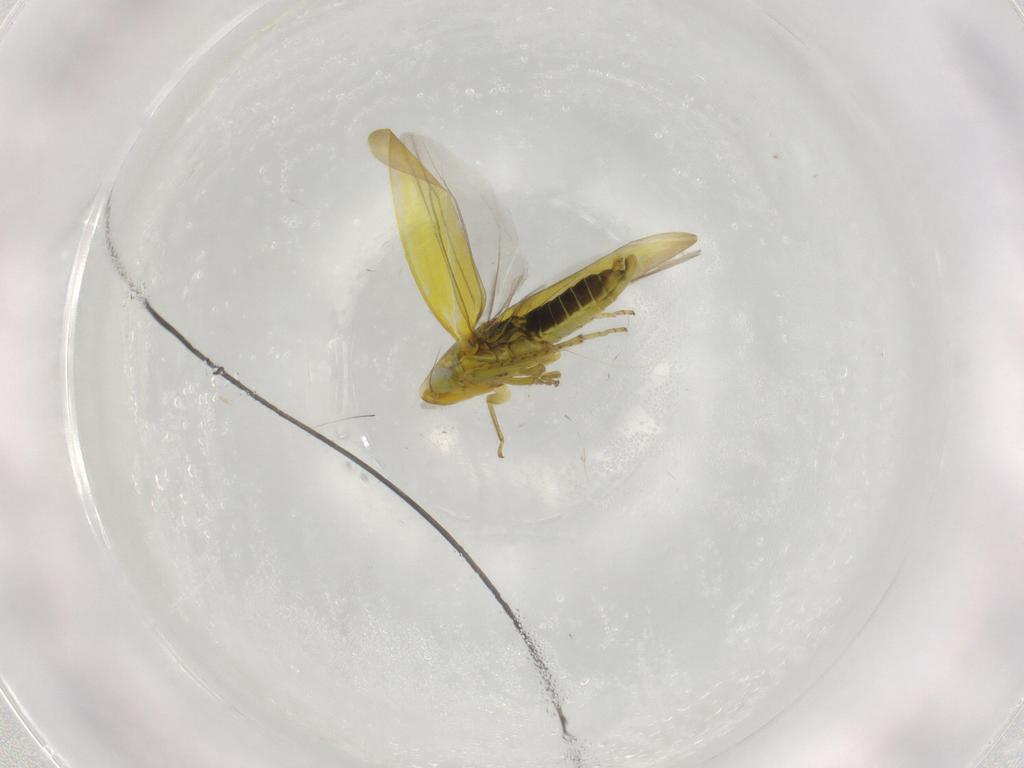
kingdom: Animalia
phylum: Arthropoda
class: Insecta
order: Hemiptera
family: Cicadellidae
